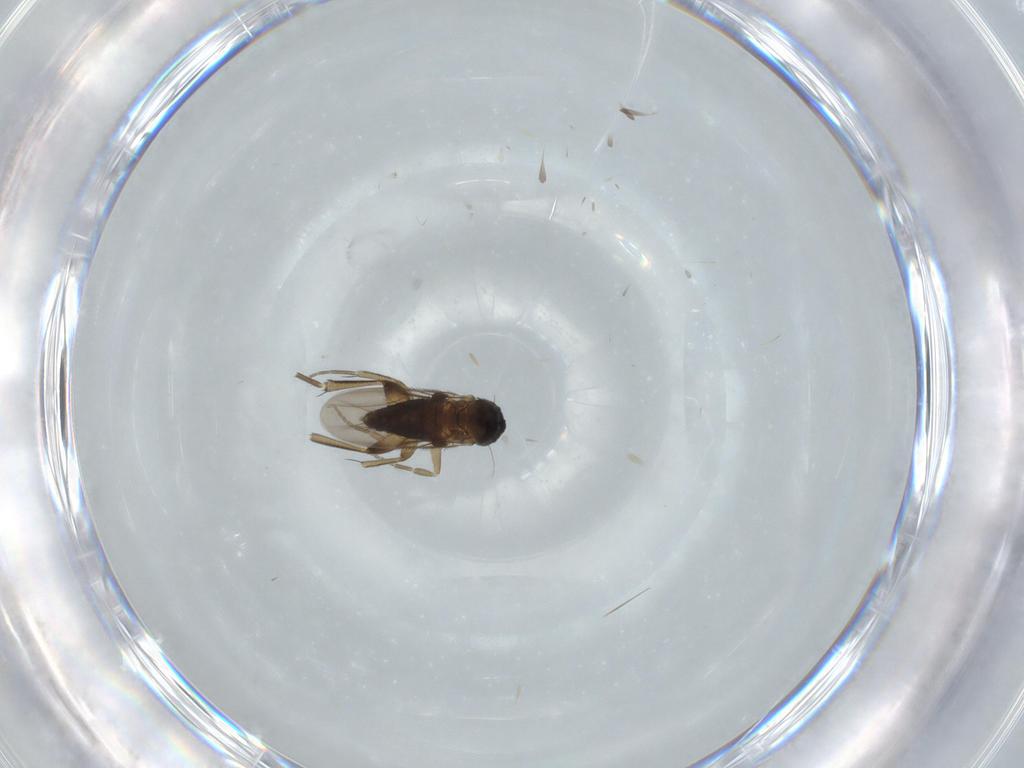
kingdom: Animalia
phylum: Arthropoda
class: Insecta
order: Diptera
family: Phoridae
